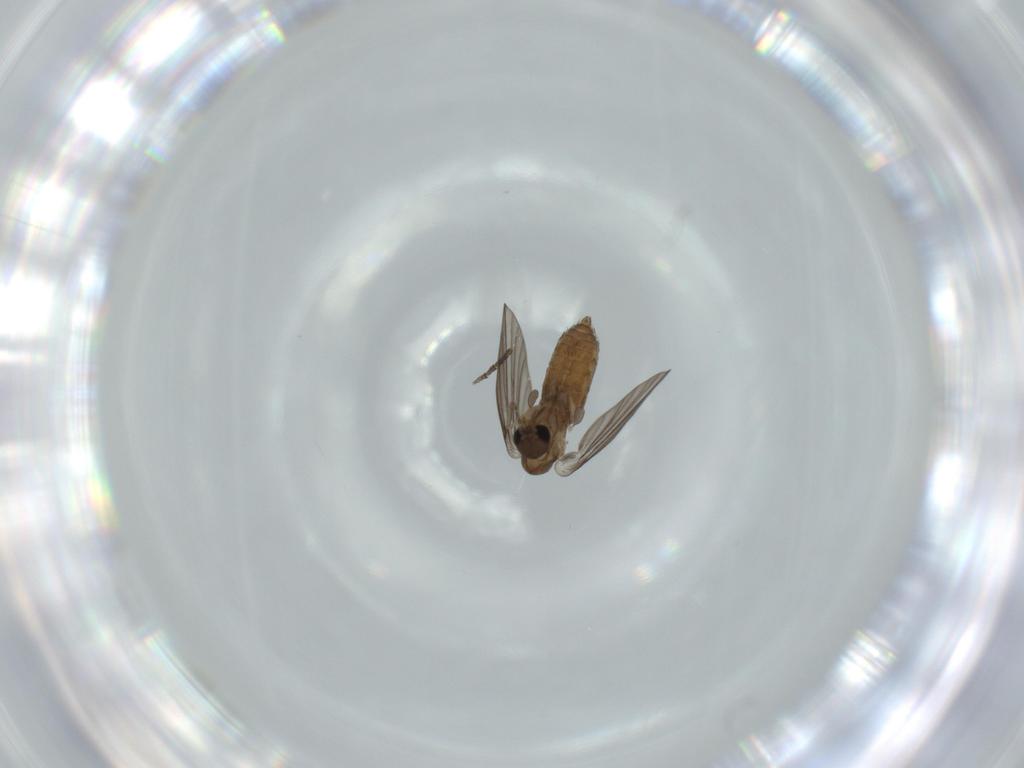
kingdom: Animalia
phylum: Arthropoda
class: Insecta
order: Diptera
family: Psychodidae
